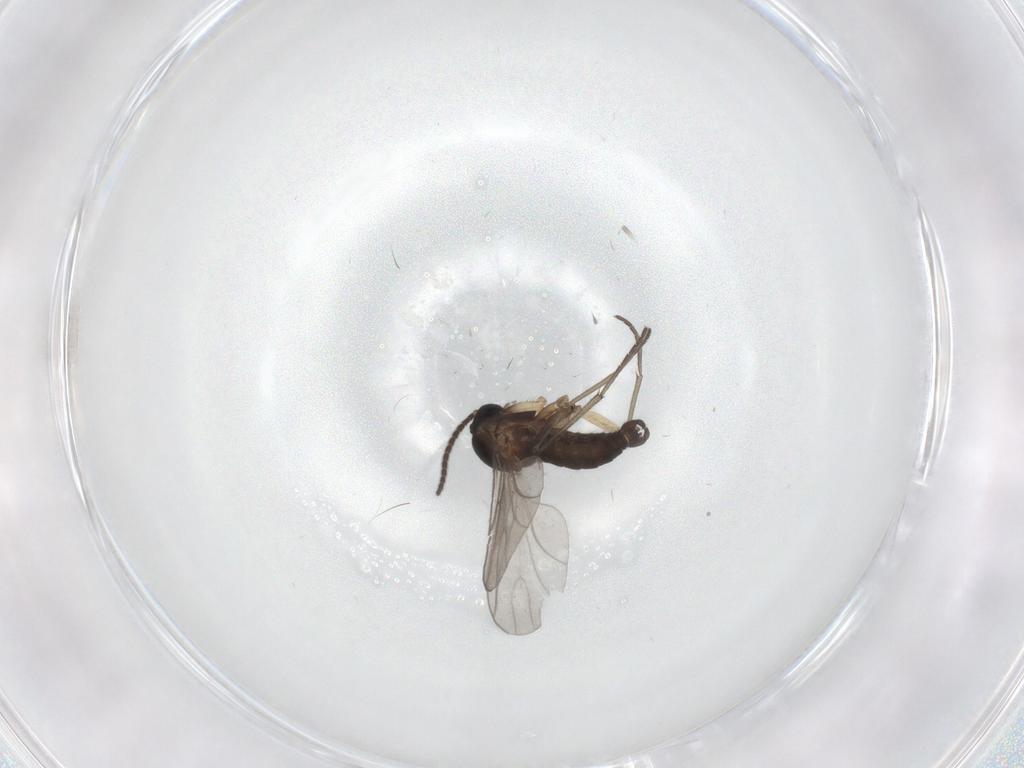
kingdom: Animalia
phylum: Arthropoda
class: Insecta
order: Diptera
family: Sciaridae
